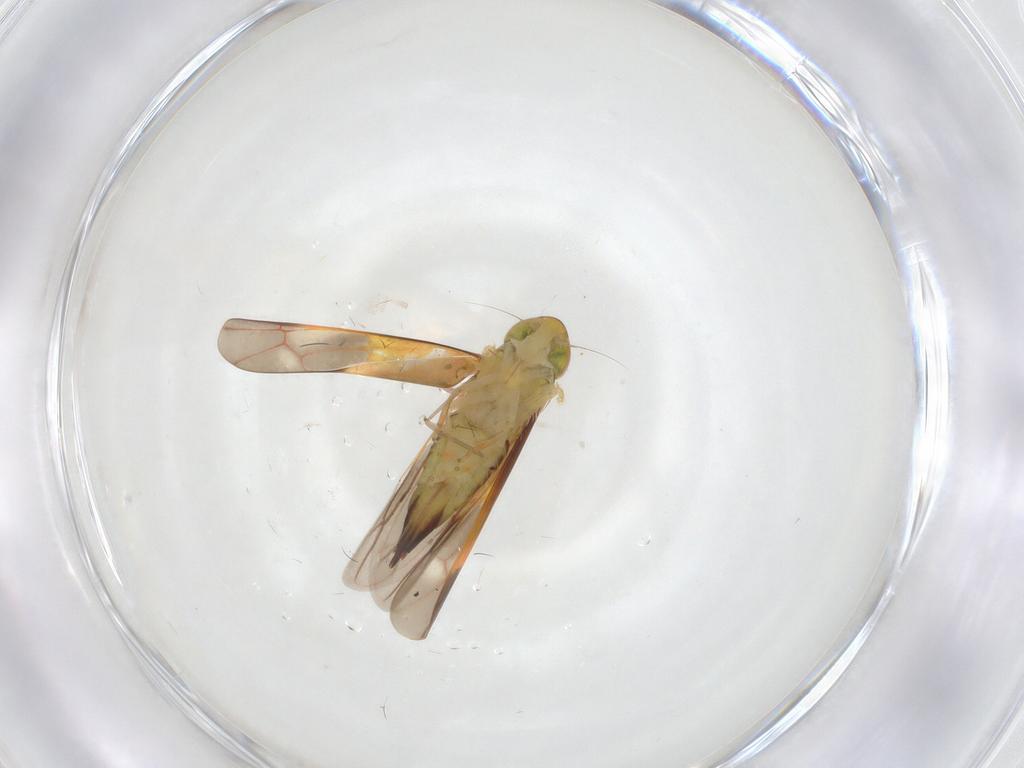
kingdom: Animalia
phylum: Arthropoda
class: Insecta
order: Hemiptera
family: Cicadellidae
